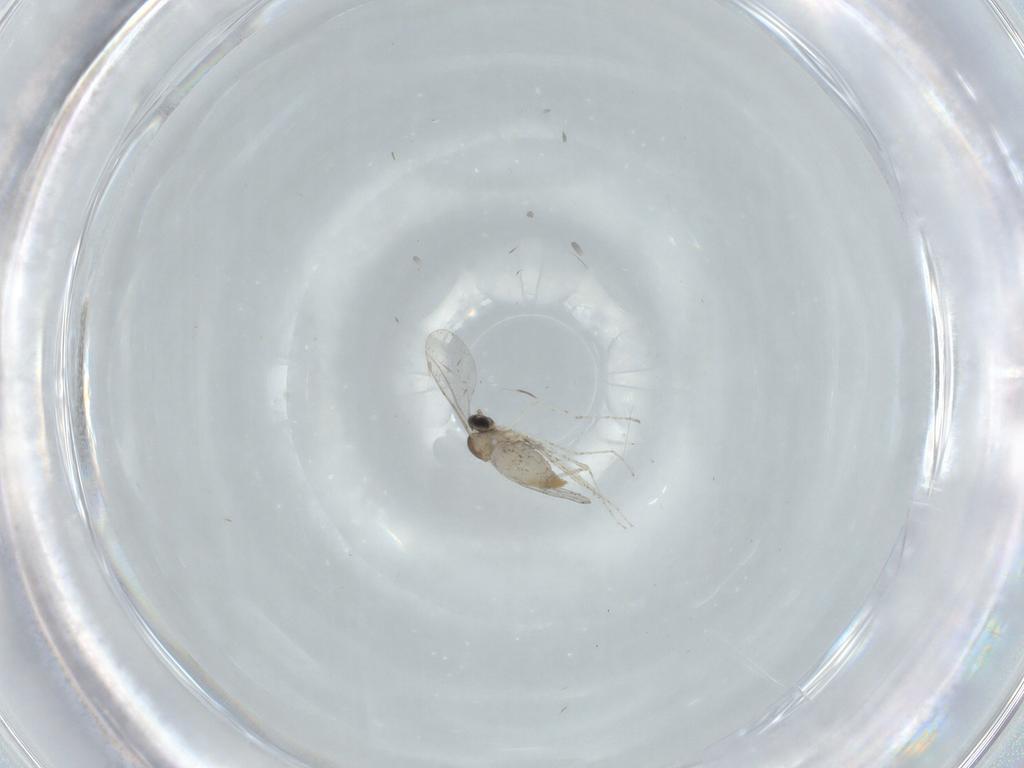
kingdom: Animalia
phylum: Arthropoda
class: Insecta
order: Diptera
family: Cecidomyiidae
